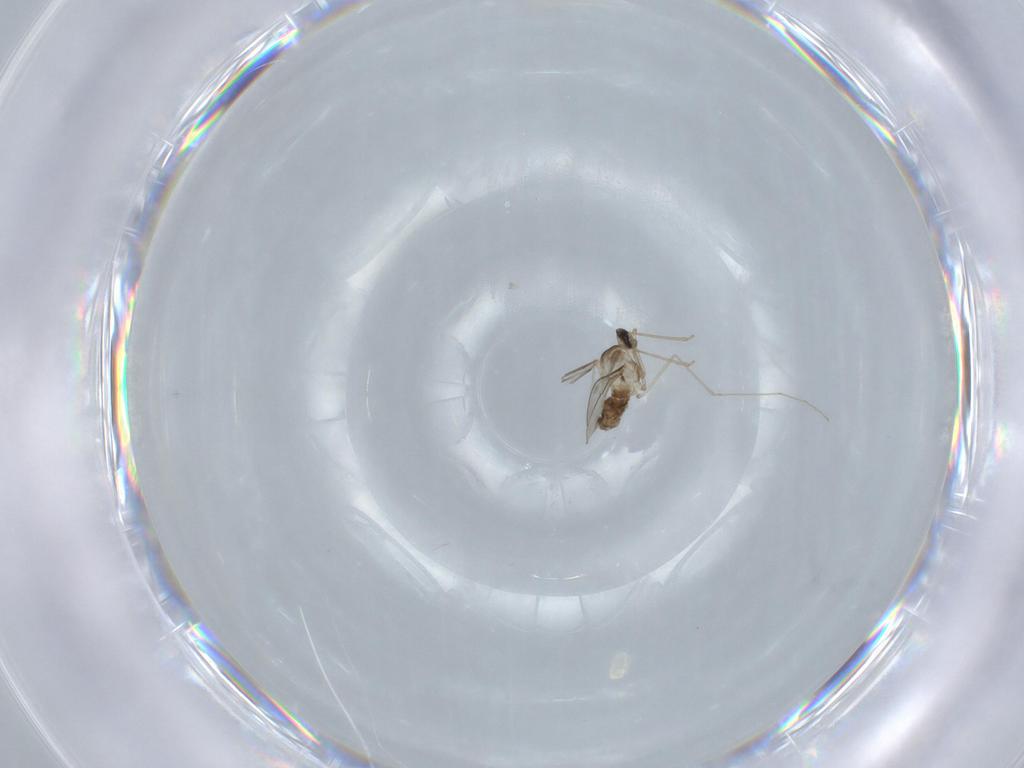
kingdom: Animalia
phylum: Arthropoda
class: Insecta
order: Diptera
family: Cecidomyiidae
